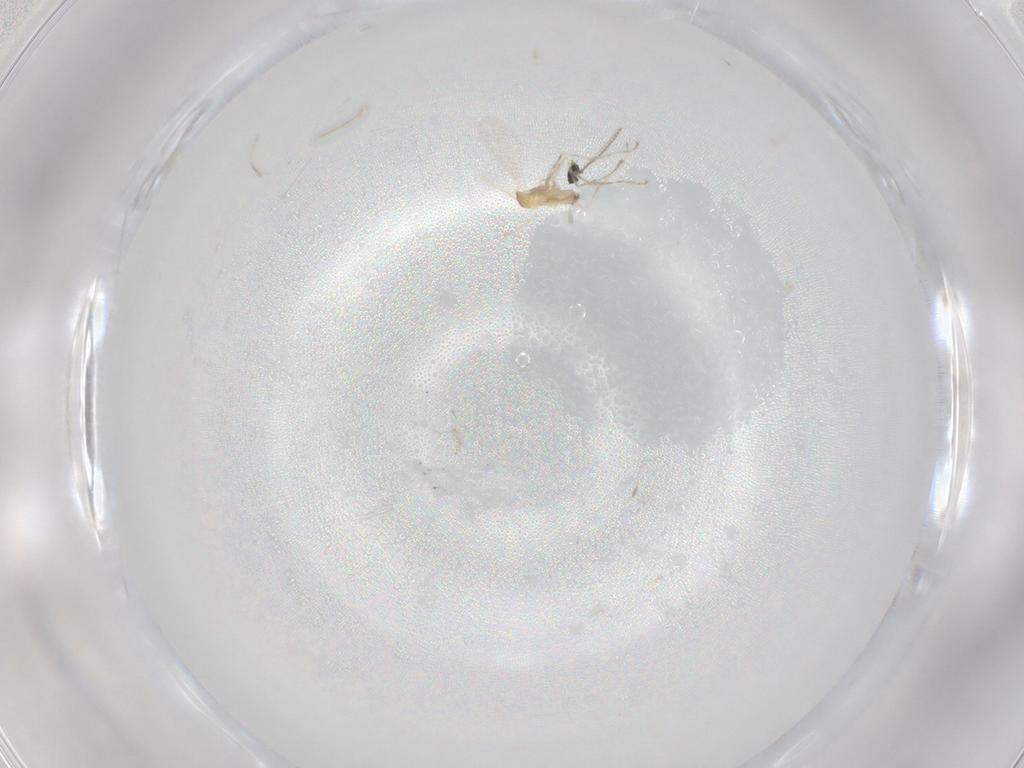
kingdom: Animalia
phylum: Arthropoda
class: Insecta
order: Diptera
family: Cecidomyiidae
